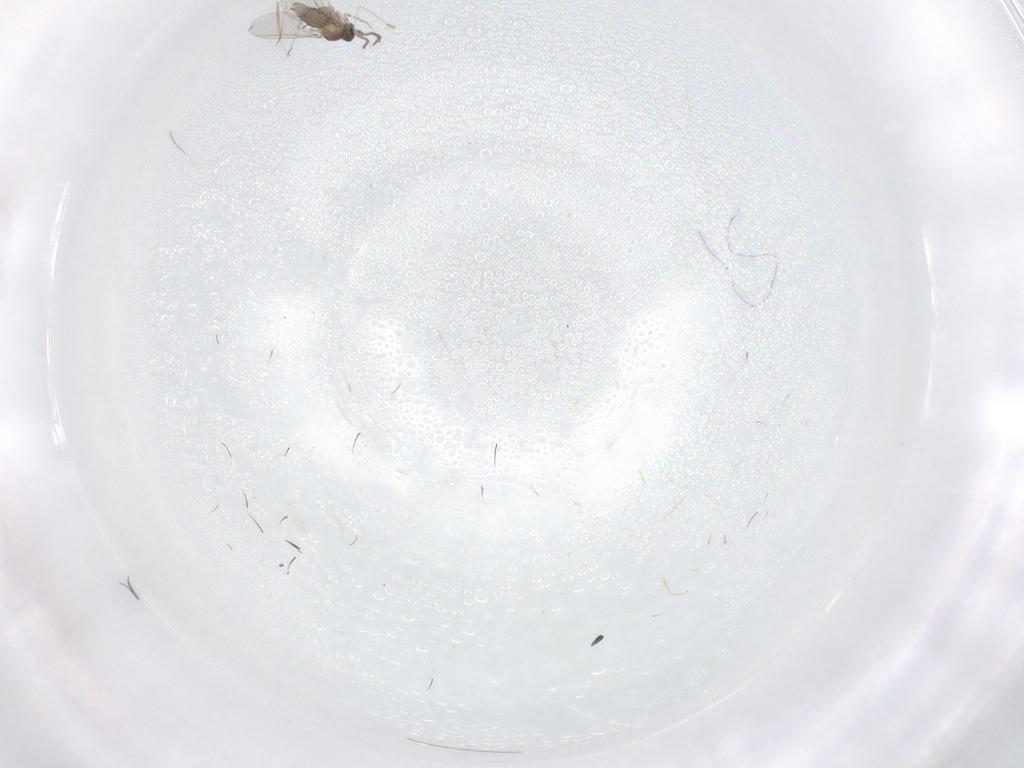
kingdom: Animalia
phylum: Arthropoda
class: Insecta
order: Diptera
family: Cecidomyiidae
